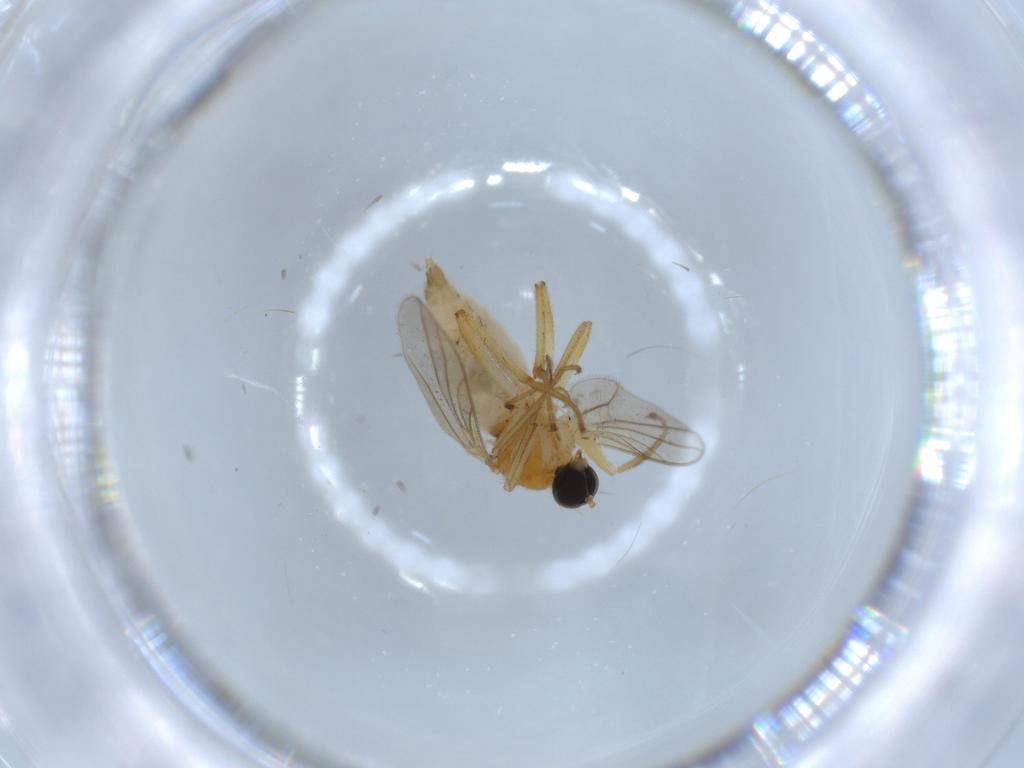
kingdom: Animalia
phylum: Arthropoda
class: Insecta
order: Diptera
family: Hybotidae
